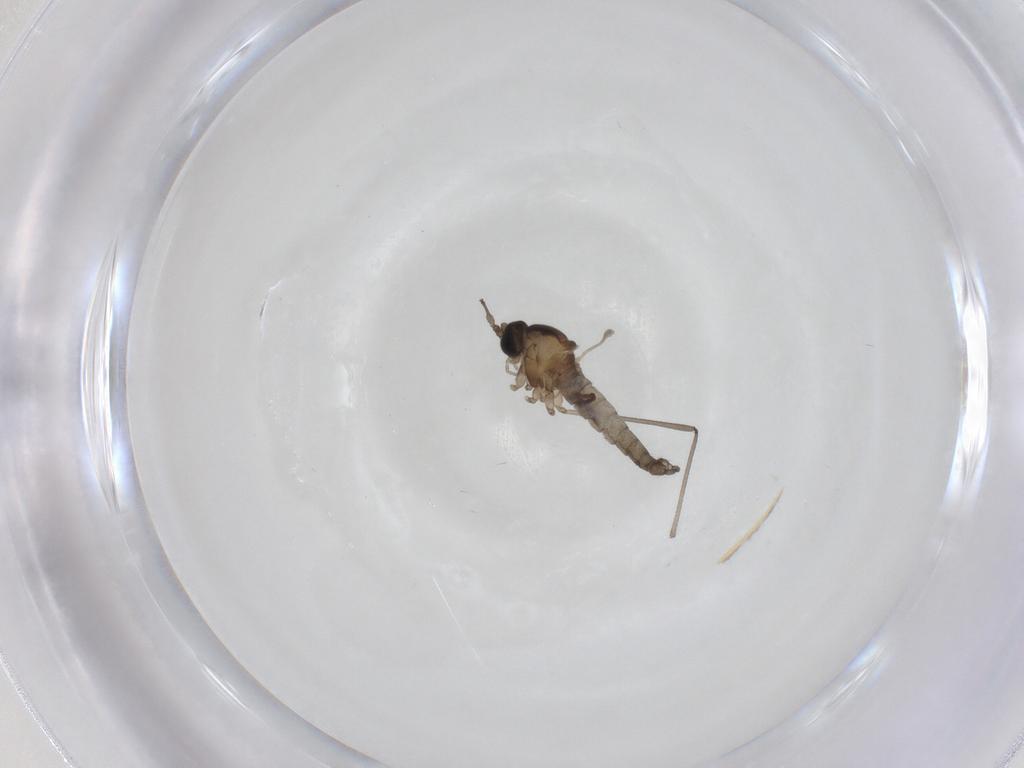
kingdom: Animalia
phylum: Arthropoda
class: Insecta
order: Diptera
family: Cecidomyiidae
